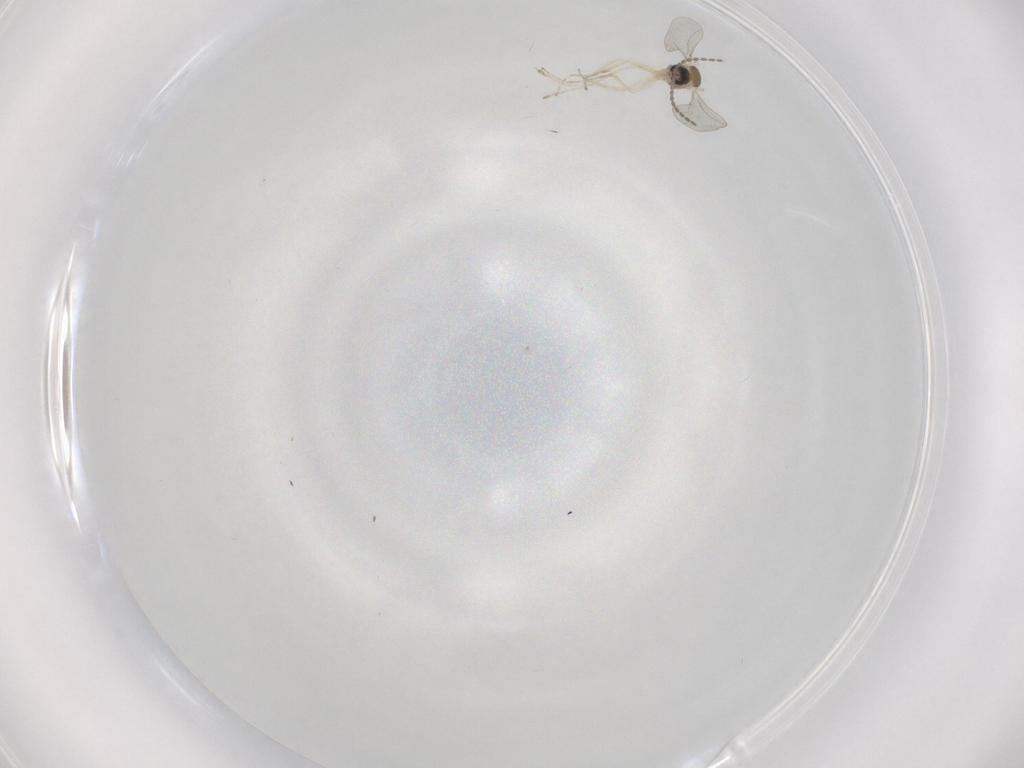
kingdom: Animalia
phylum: Arthropoda
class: Insecta
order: Diptera
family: Cecidomyiidae
